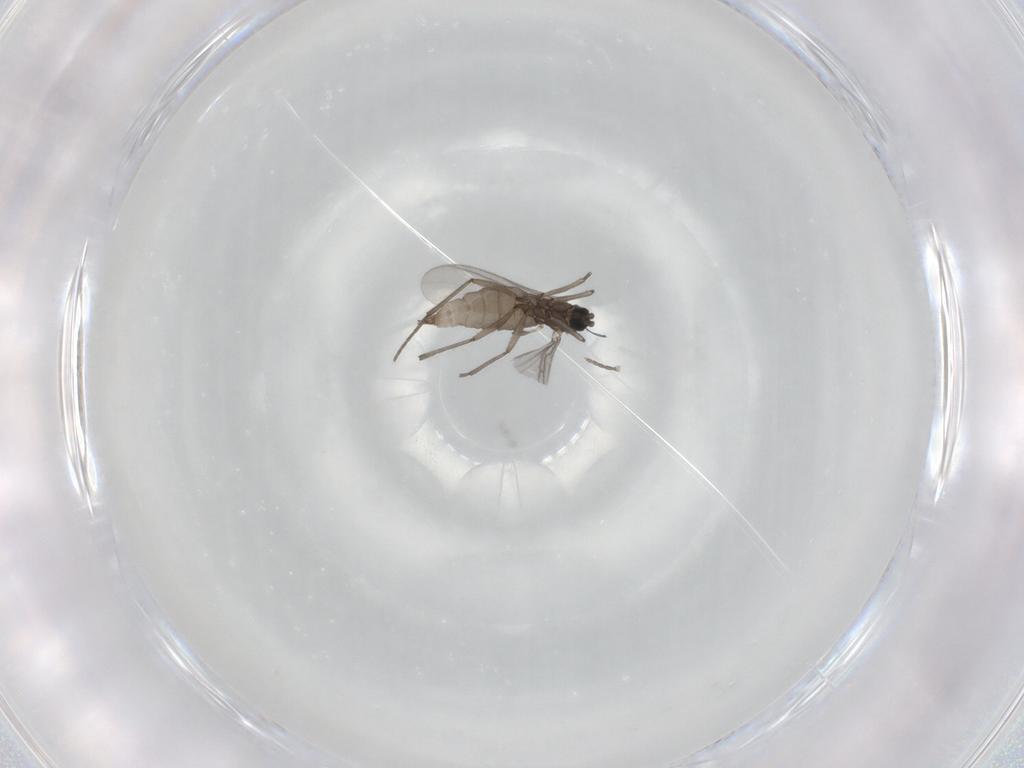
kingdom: Animalia
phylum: Arthropoda
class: Insecta
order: Diptera
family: Sciaridae
